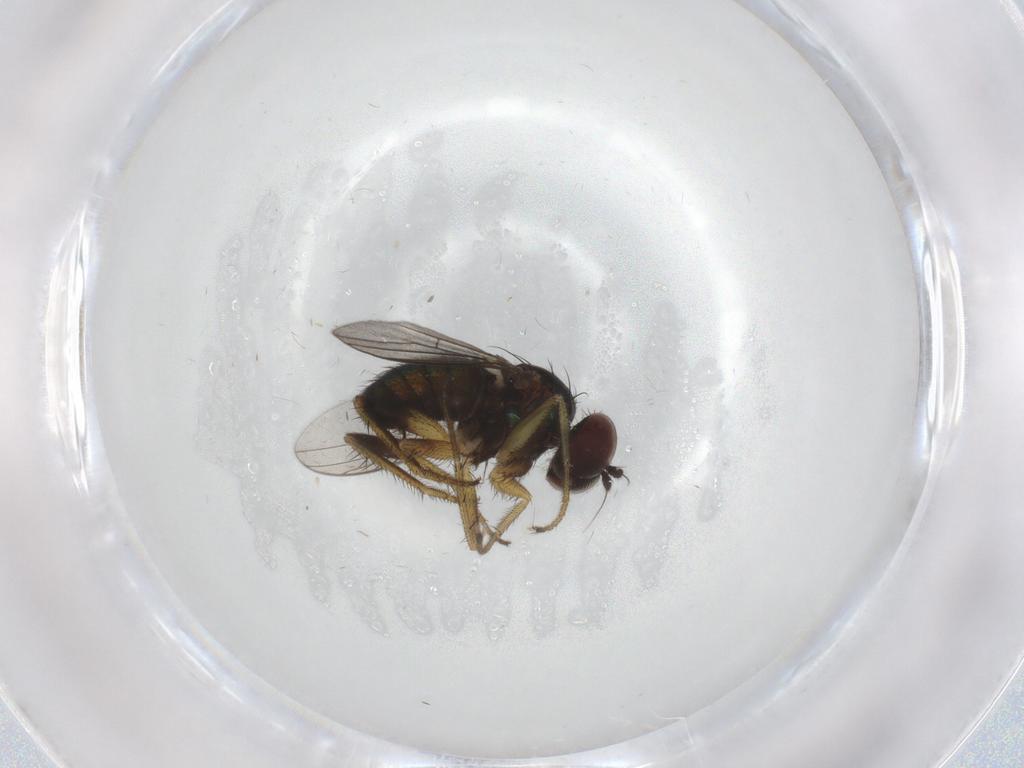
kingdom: Animalia
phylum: Arthropoda
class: Insecta
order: Diptera
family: Dolichopodidae
